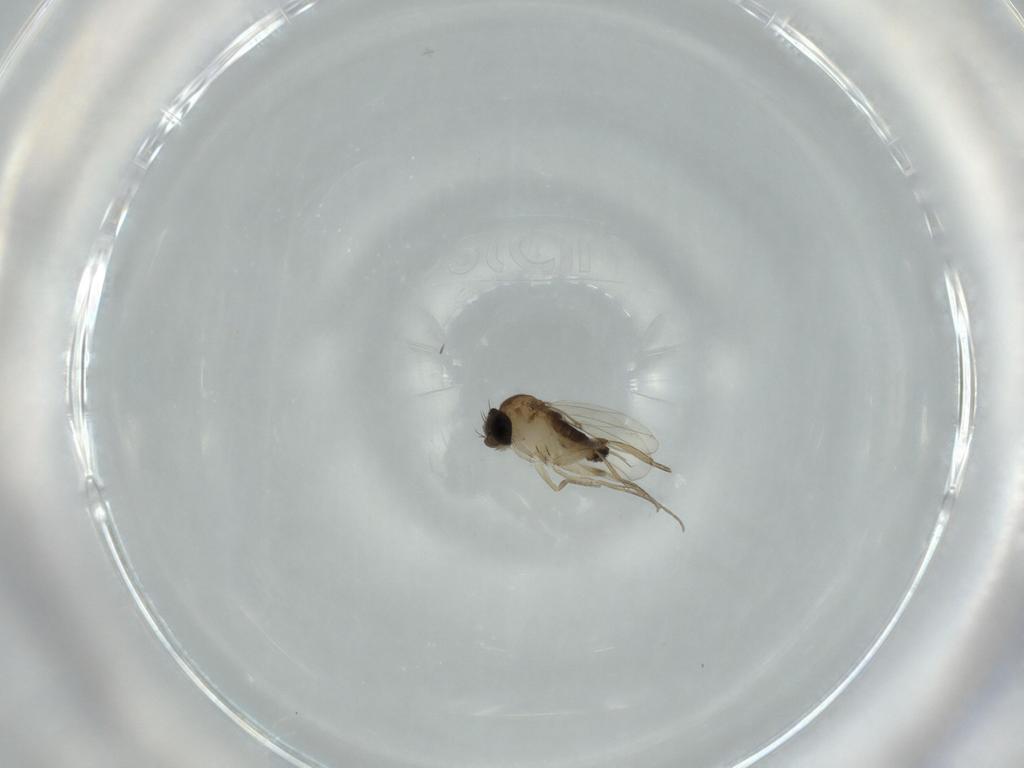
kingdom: Animalia
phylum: Arthropoda
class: Insecta
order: Diptera
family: Phoridae
